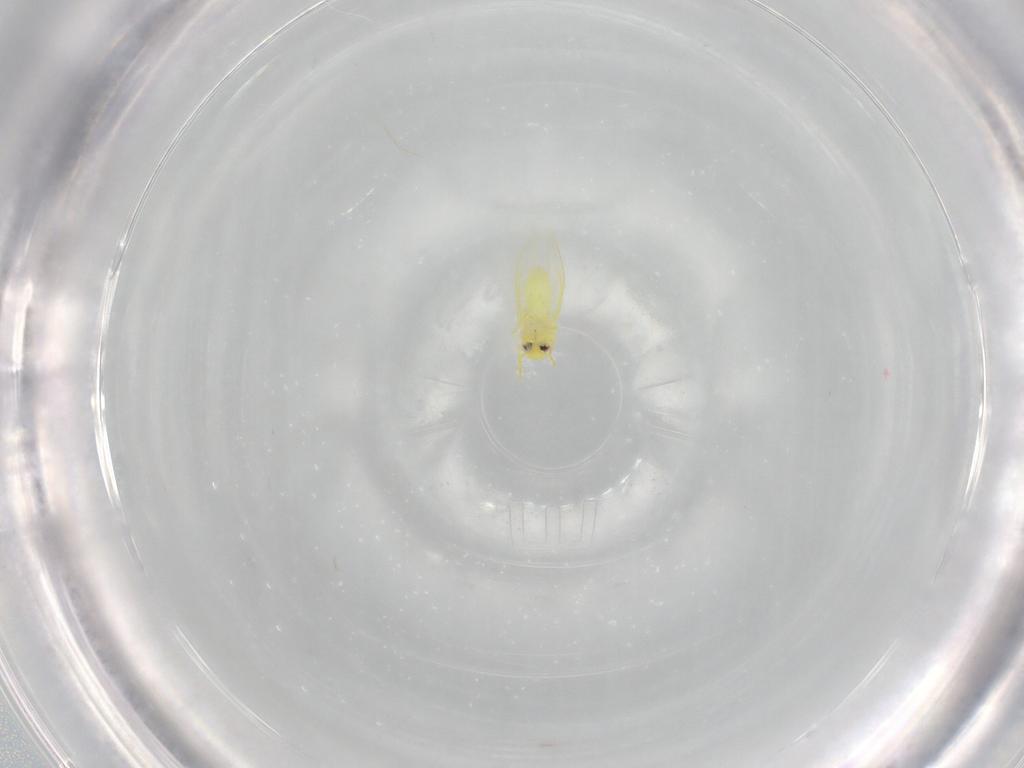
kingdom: Animalia
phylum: Arthropoda
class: Insecta
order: Hemiptera
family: Aleyrodidae
